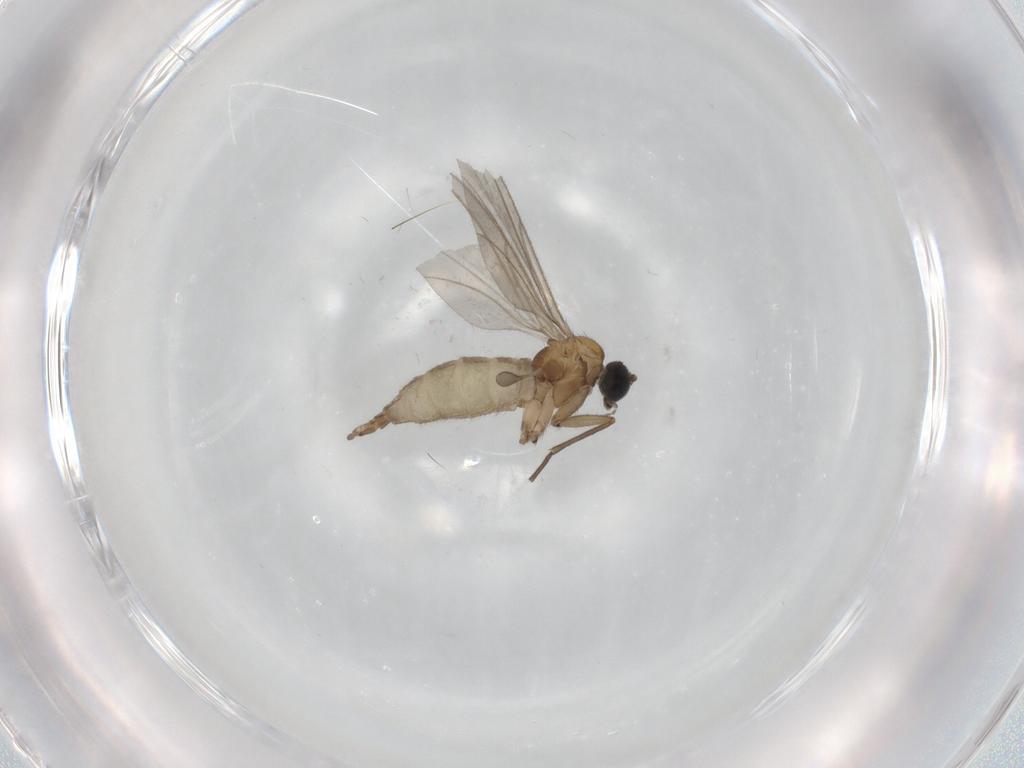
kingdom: Animalia
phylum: Arthropoda
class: Insecta
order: Diptera
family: Sciaridae
